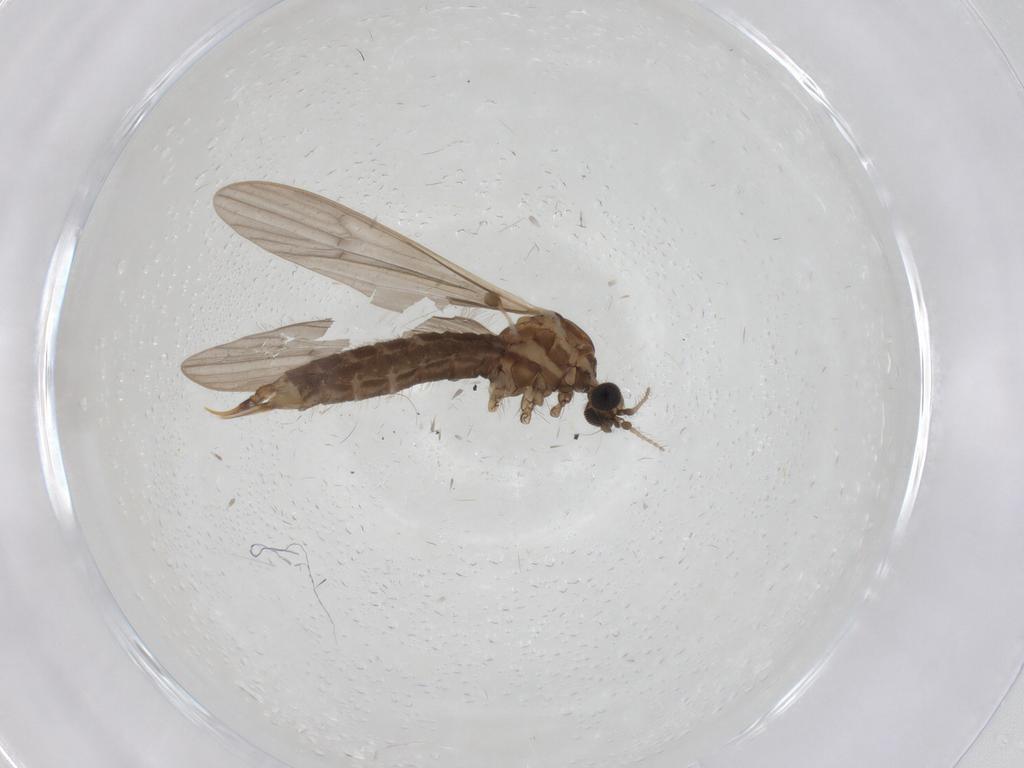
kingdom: Animalia
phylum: Arthropoda
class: Insecta
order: Diptera
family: Limoniidae
